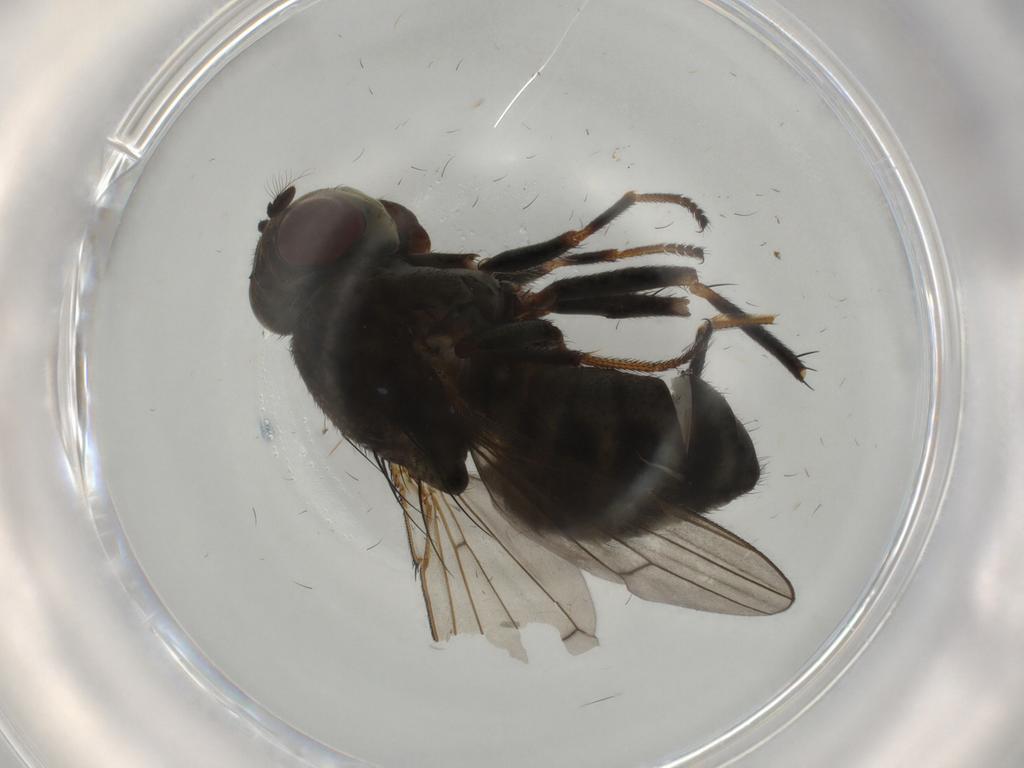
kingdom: Animalia
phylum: Arthropoda
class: Insecta
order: Diptera
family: Ephydridae
